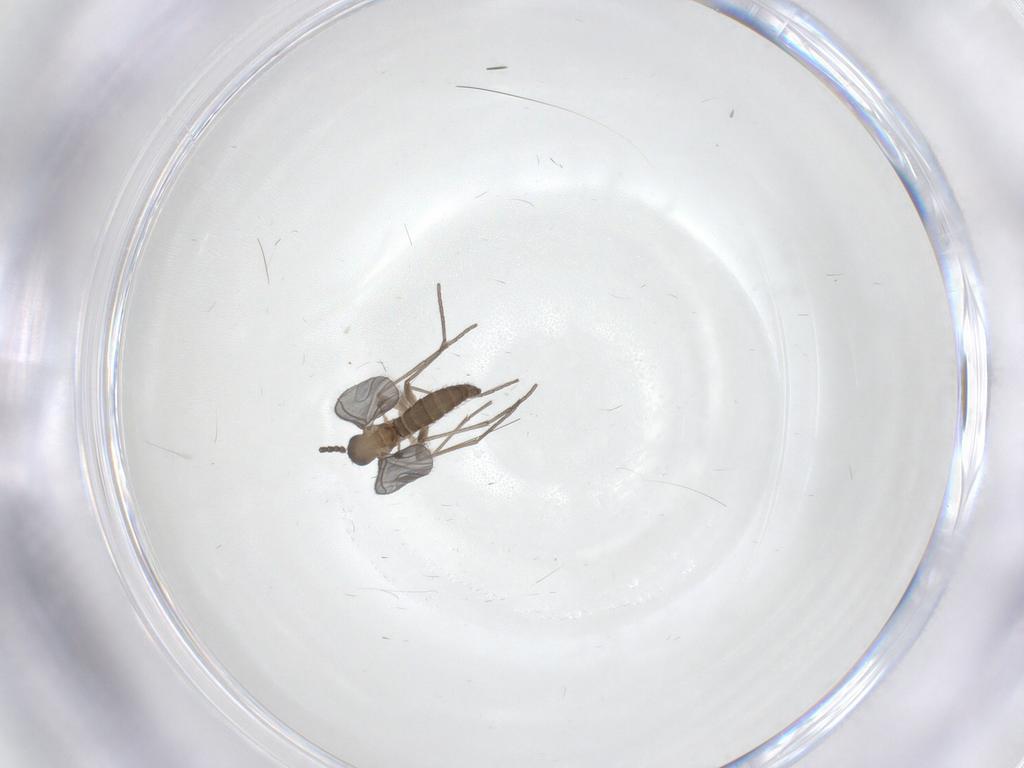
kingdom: Animalia
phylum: Arthropoda
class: Insecta
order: Diptera
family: Sciaridae
